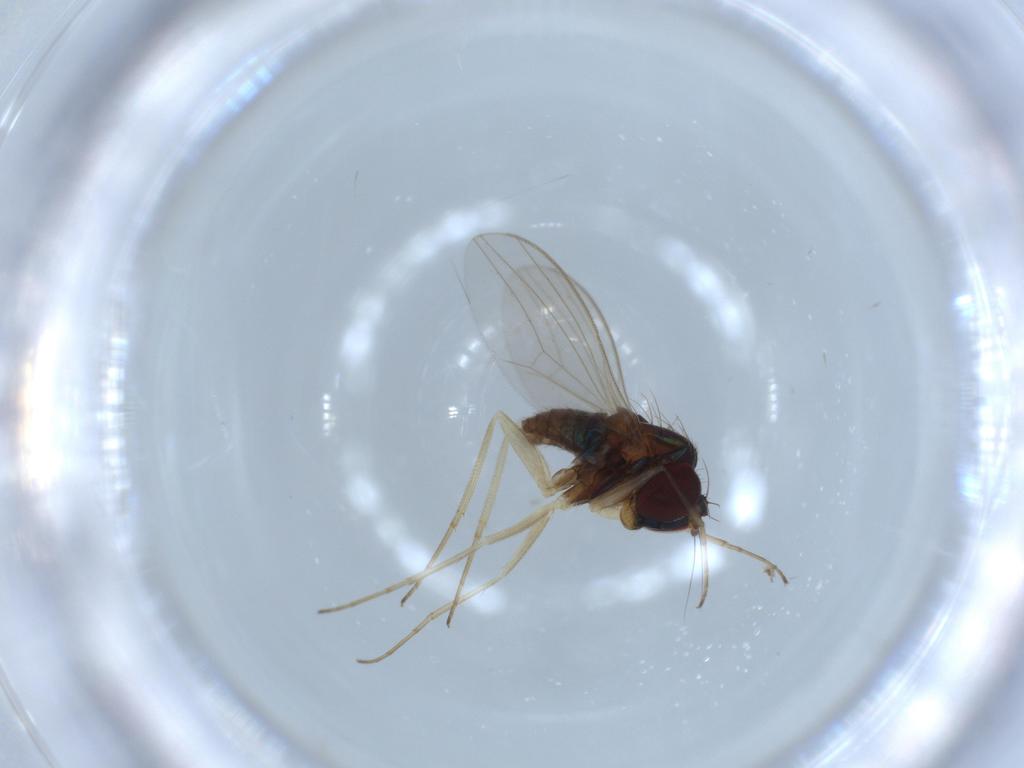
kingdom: Animalia
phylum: Arthropoda
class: Insecta
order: Diptera
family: Dolichopodidae
